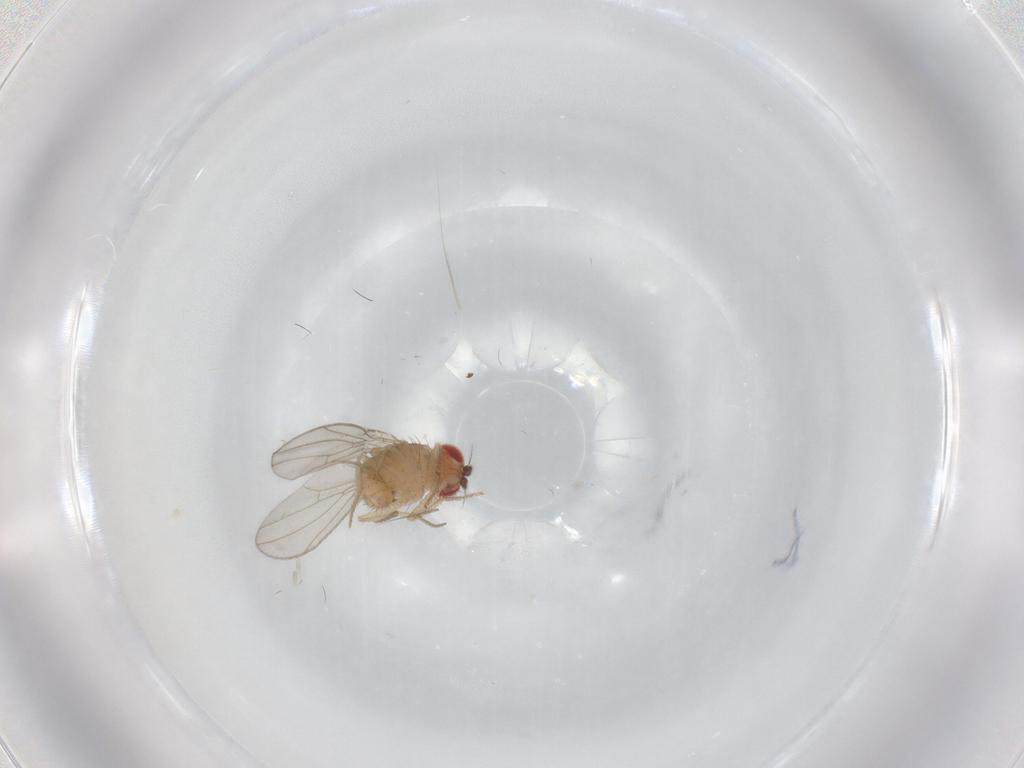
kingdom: Animalia
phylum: Arthropoda
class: Insecta
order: Diptera
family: Drosophilidae
